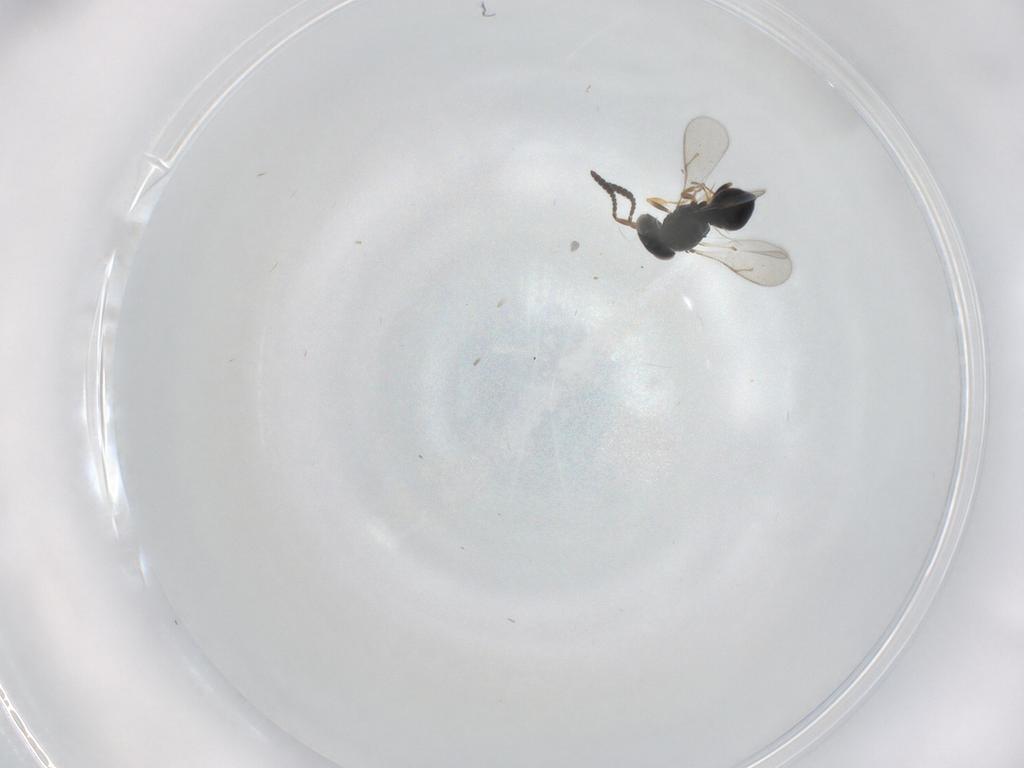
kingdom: Animalia
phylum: Arthropoda
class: Insecta
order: Hymenoptera
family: Scelionidae
